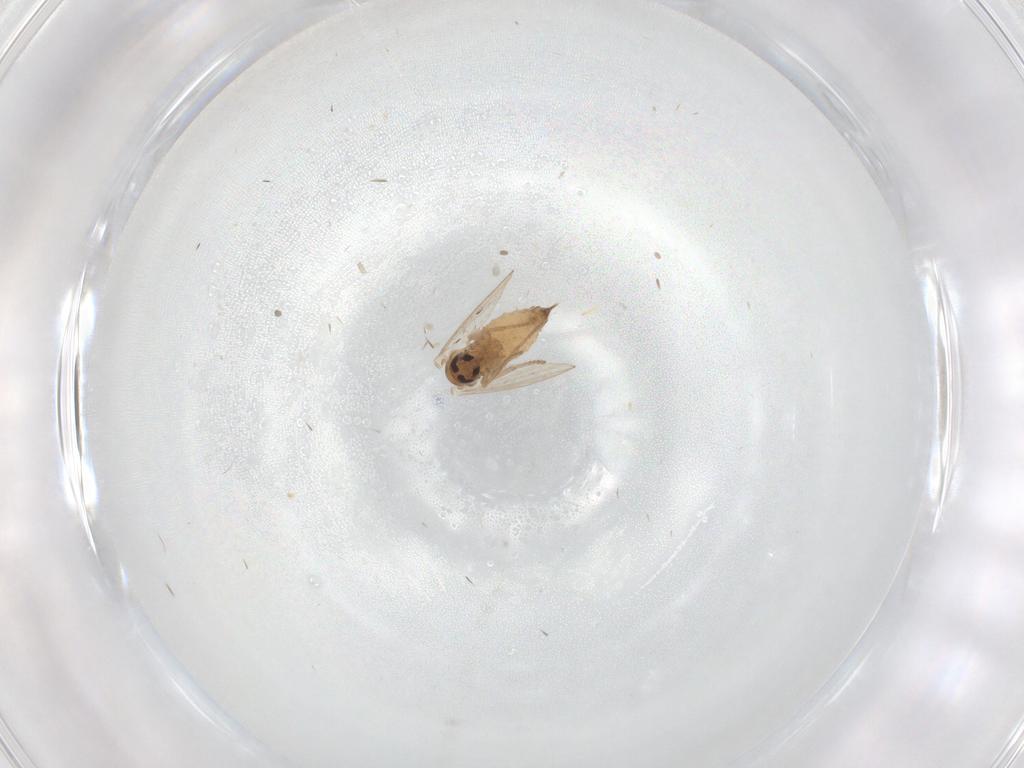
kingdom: Animalia
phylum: Arthropoda
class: Insecta
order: Diptera
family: Psychodidae
